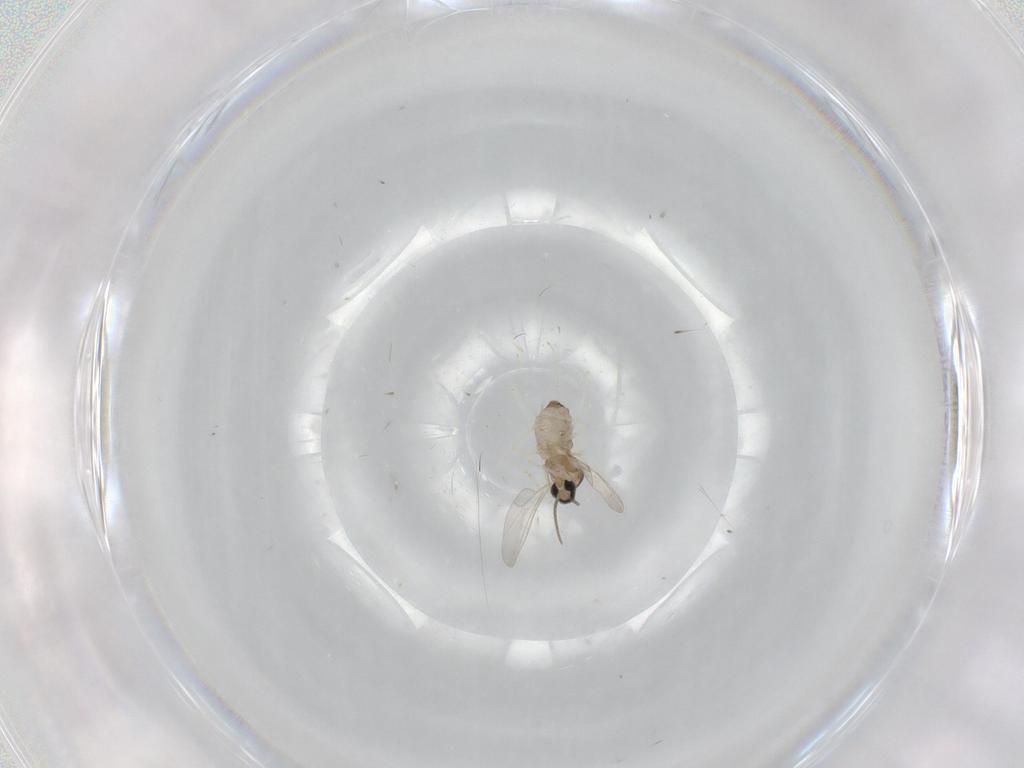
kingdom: Animalia
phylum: Arthropoda
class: Insecta
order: Diptera
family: Cecidomyiidae
